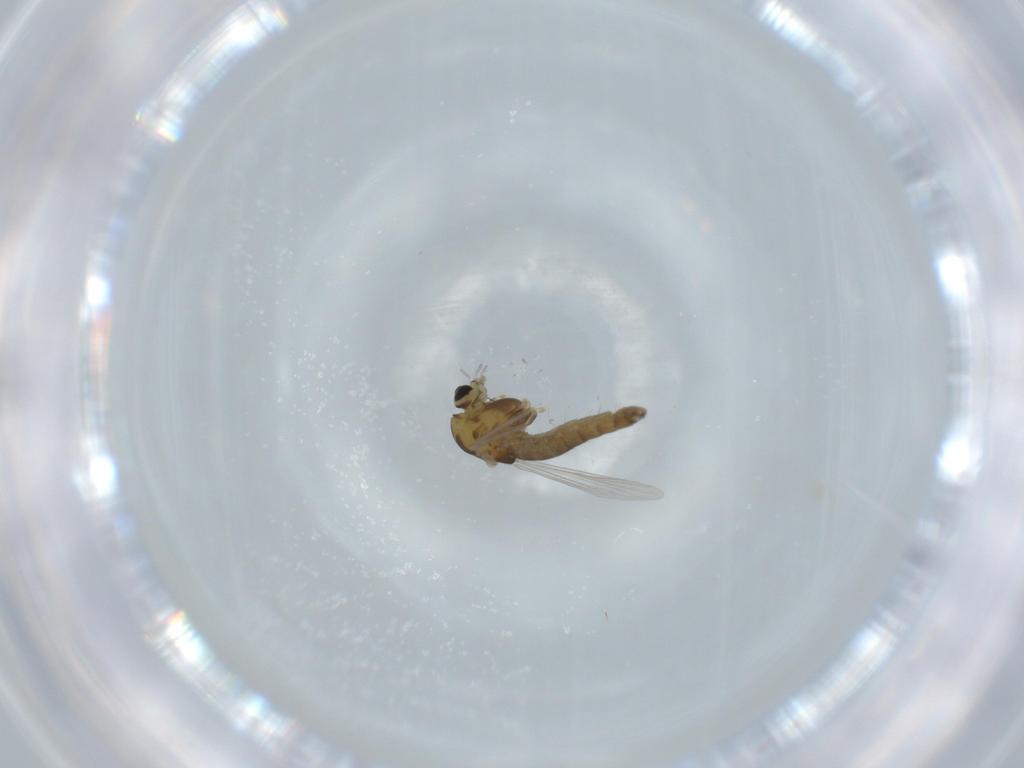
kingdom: Animalia
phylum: Arthropoda
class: Insecta
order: Diptera
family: Chironomidae
